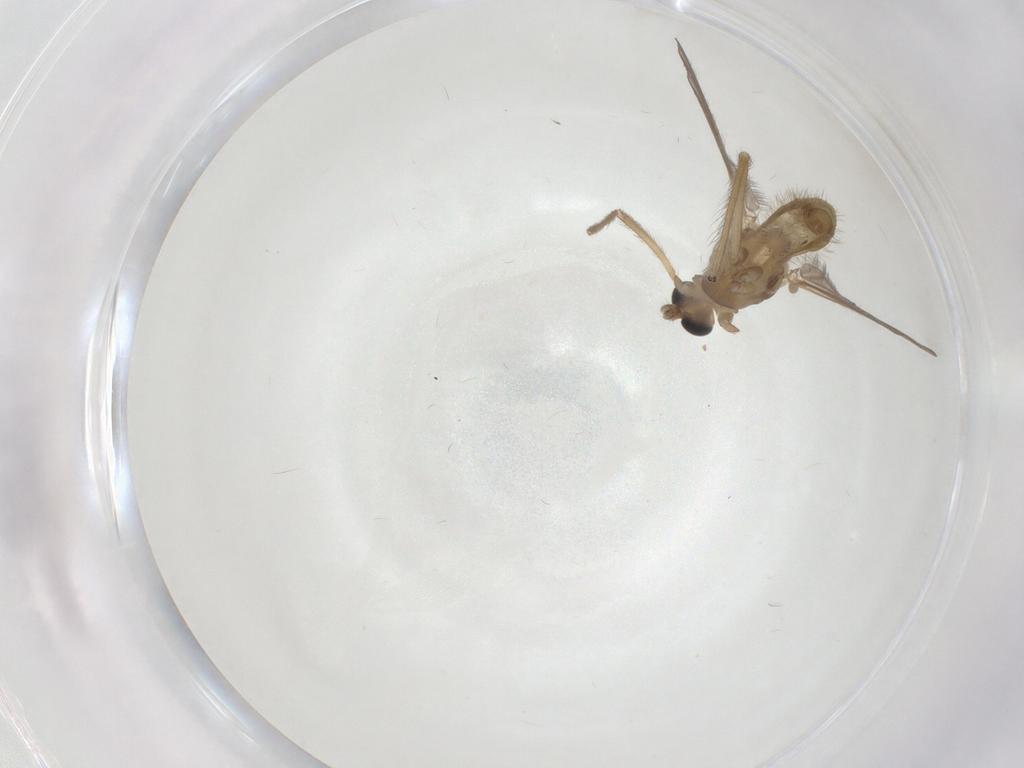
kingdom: Animalia
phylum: Arthropoda
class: Insecta
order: Diptera
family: Chironomidae
